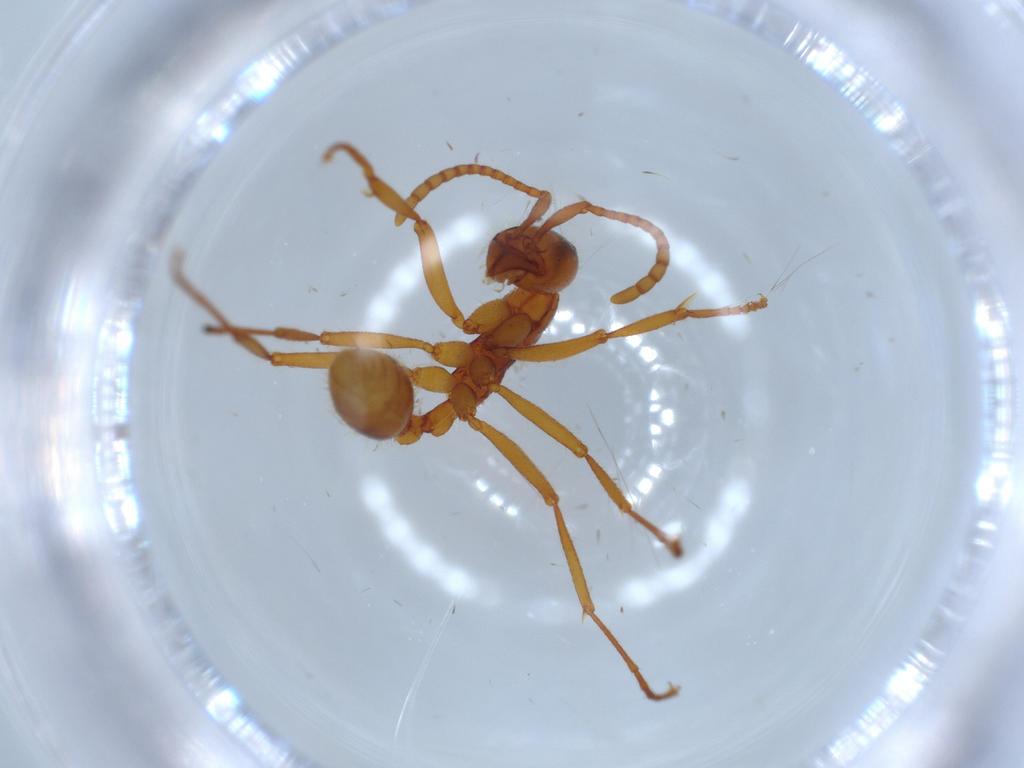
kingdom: Animalia
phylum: Arthropoda
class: Insecta
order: Hymenoptera
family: Formicidae
